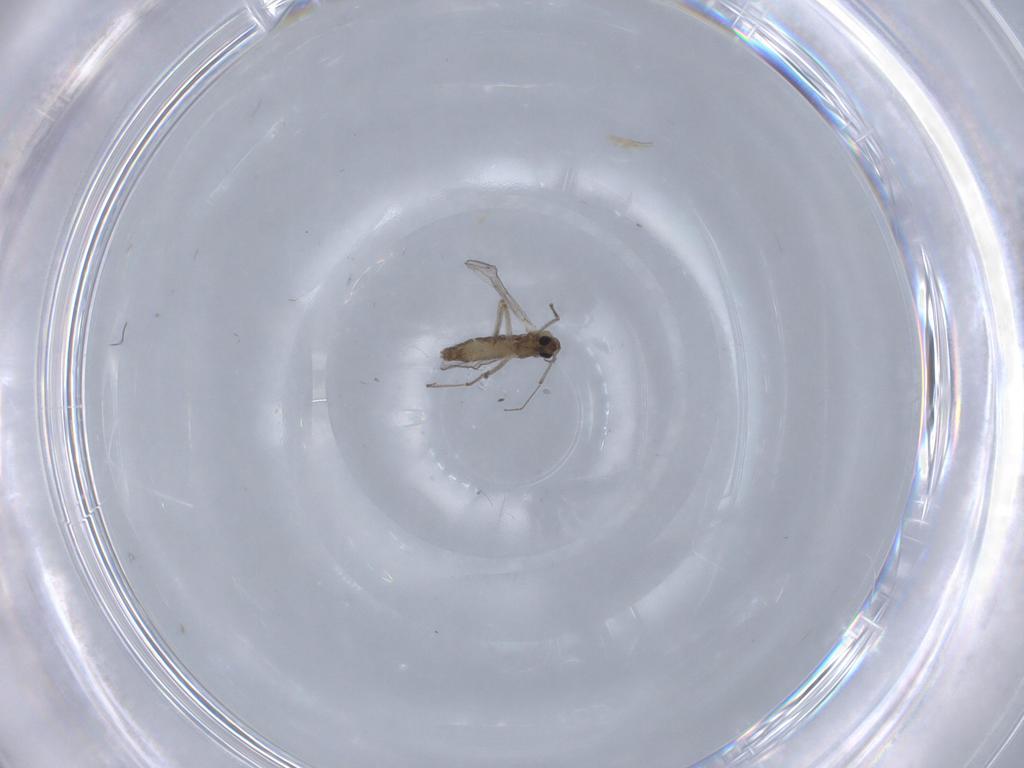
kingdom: Animalia
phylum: Arthropoda
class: Insecta
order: Diptera
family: Chironomidae
